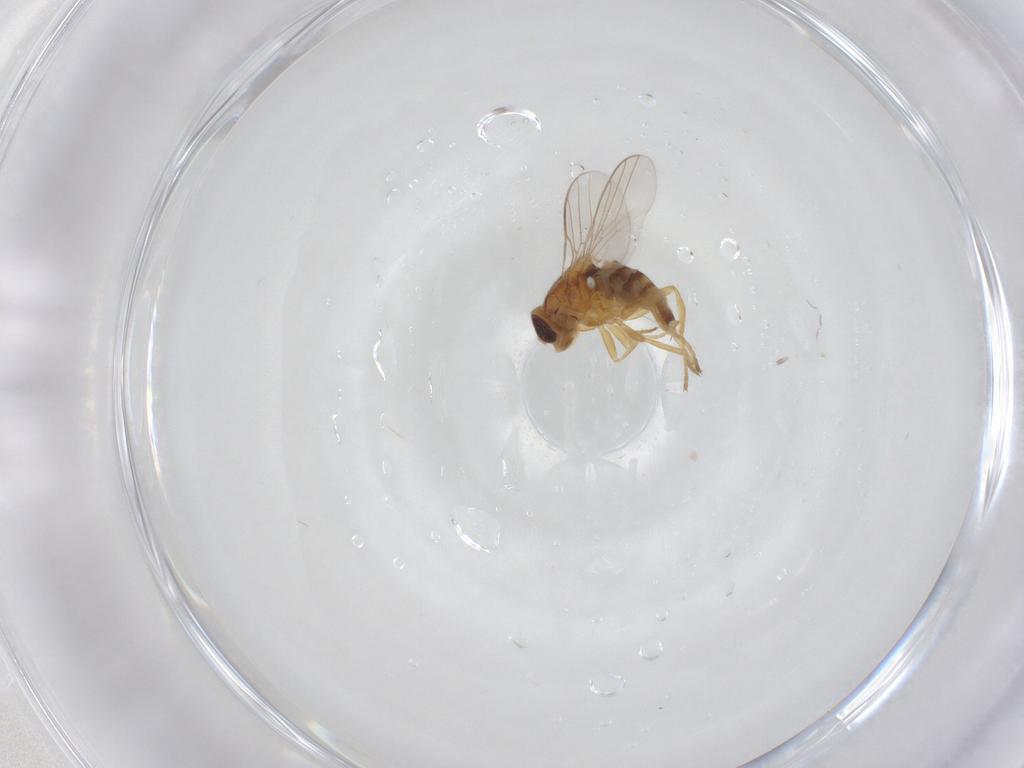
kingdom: Animalia
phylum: Arthropoda
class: Insecta
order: Diptera
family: Chloropidae
